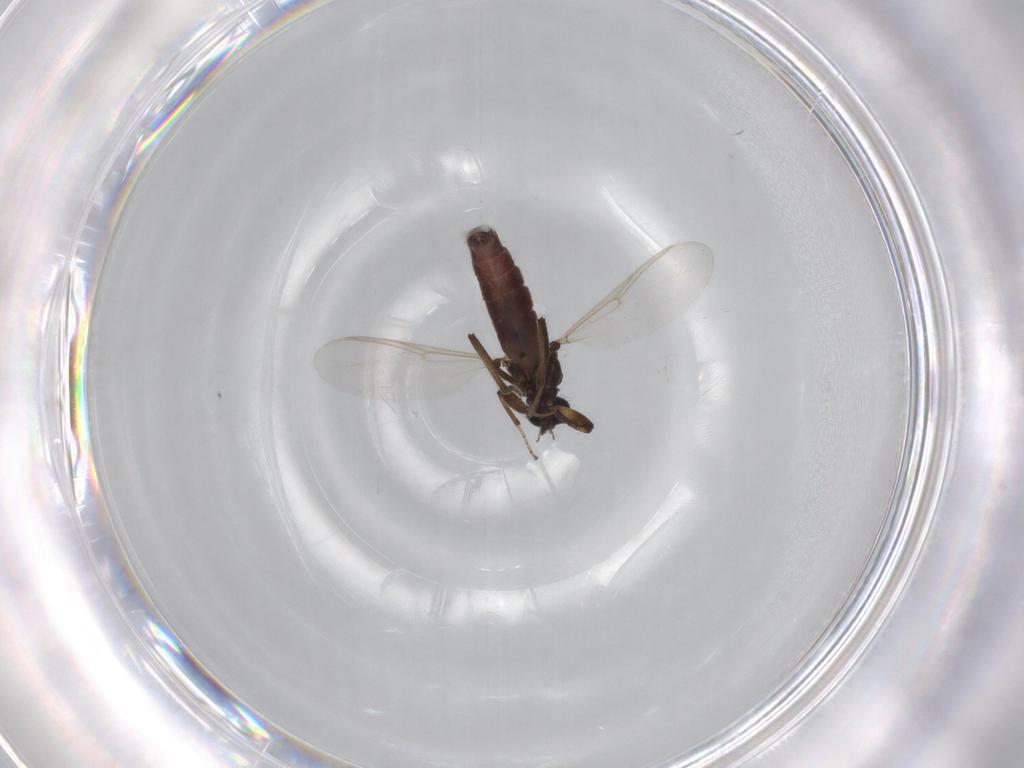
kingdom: Animalia
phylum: Arthropoda
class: Insecta
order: Diptera
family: Ceratopogonidae
